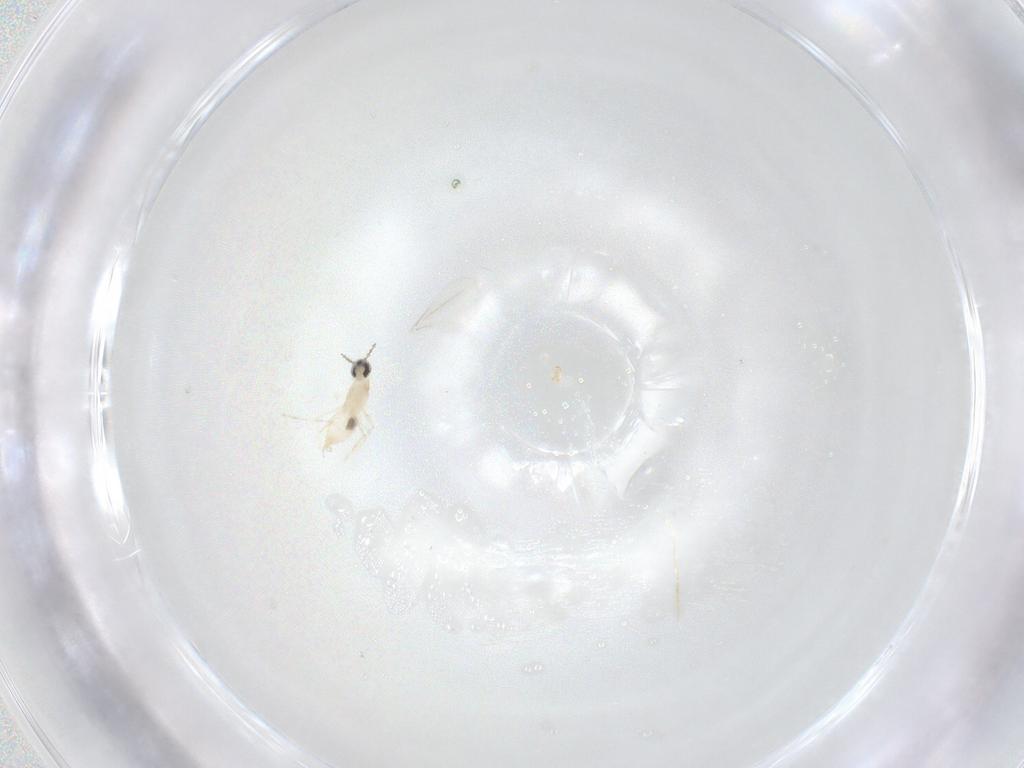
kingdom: Animalia
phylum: Arthropoda
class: Insecta
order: Diptera
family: Cecidomyiidae
